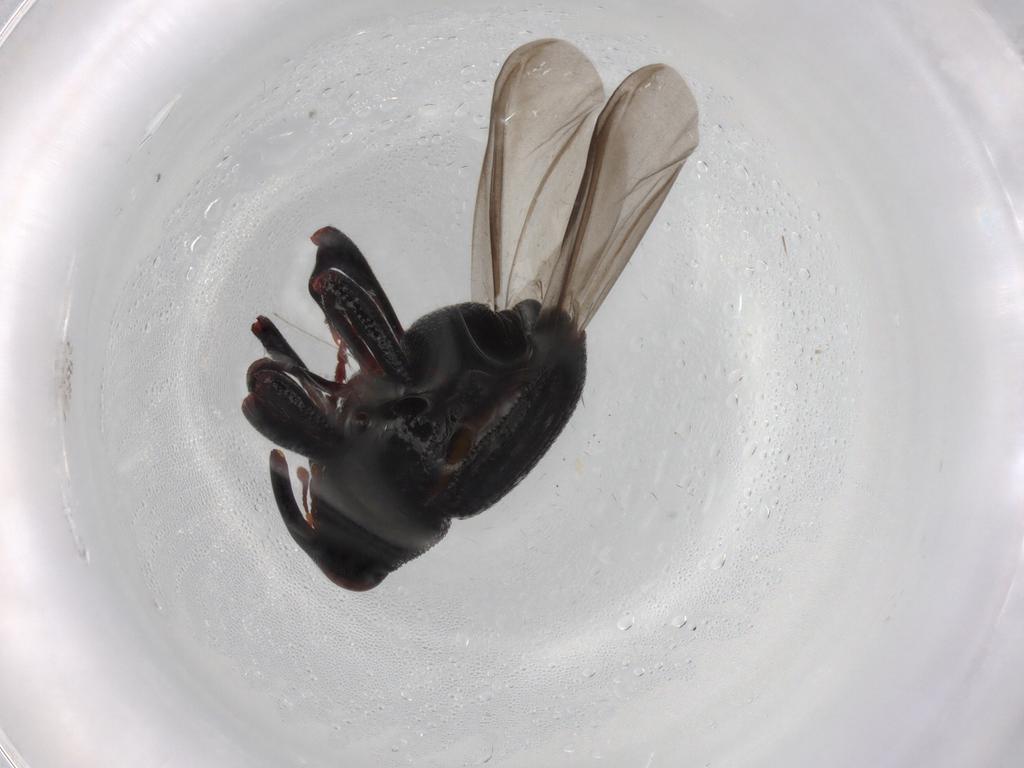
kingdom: Animalia
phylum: Arthropoda
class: Insecta
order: Coleoptera
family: Curculionidae
